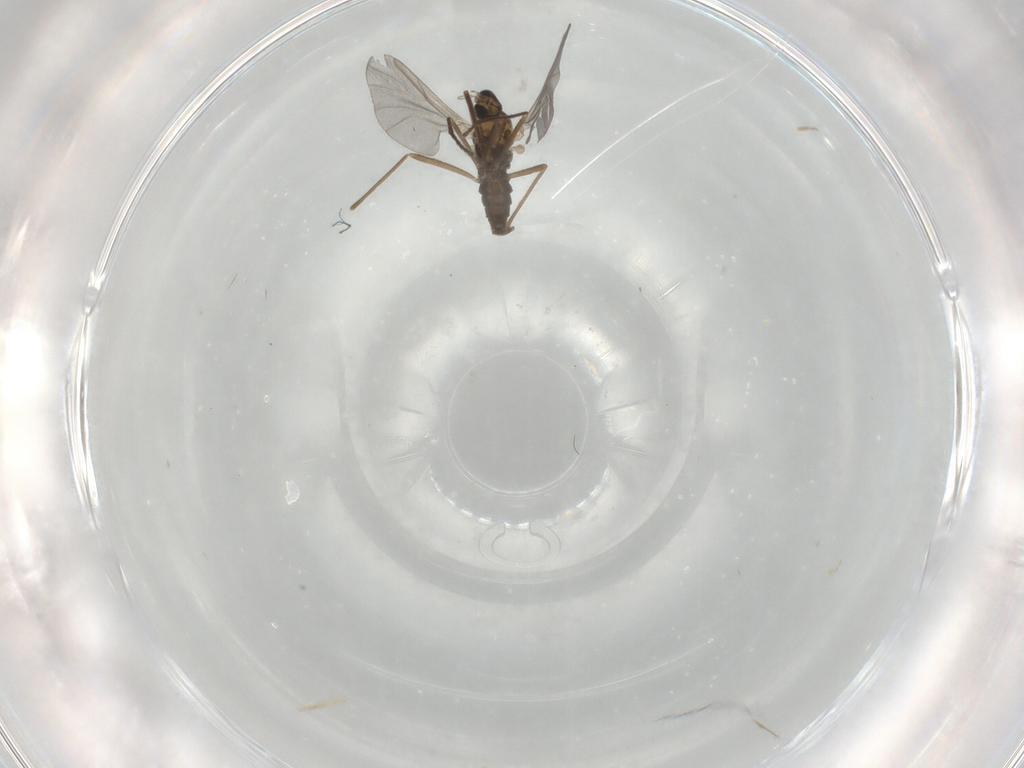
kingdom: Animalia
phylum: Arthropoda
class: Insecta
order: Diptera
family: Cecidomyiidae
